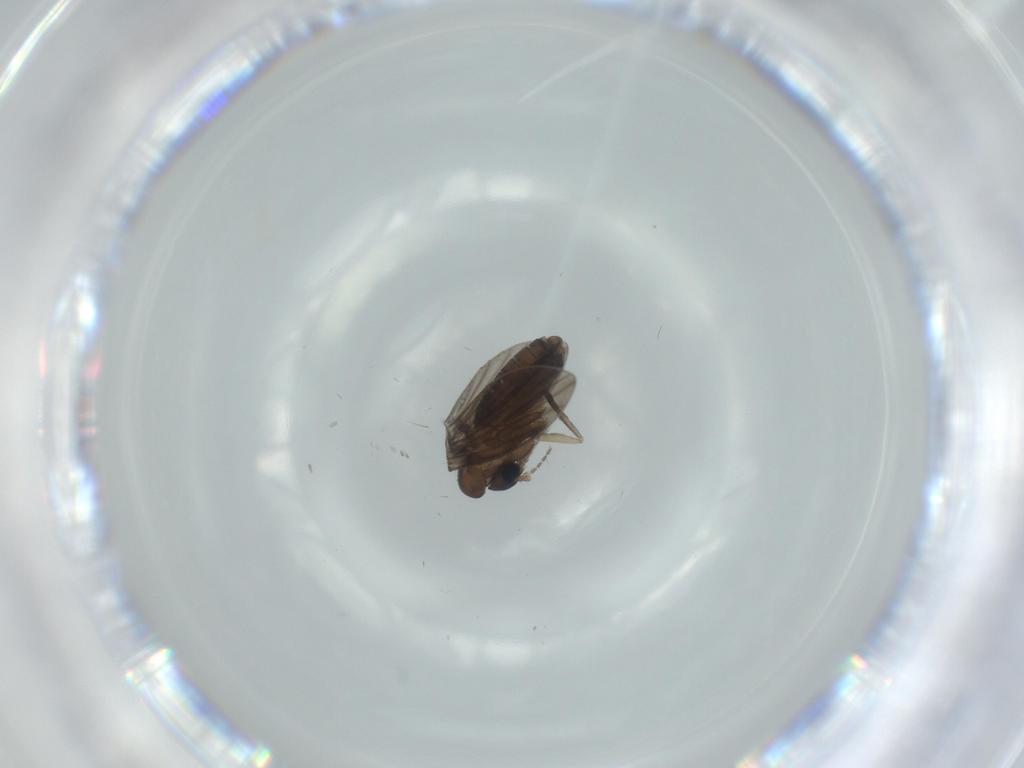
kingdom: Animalia
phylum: Arthropoda
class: Insecta
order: Diptera
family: Psychodidae
